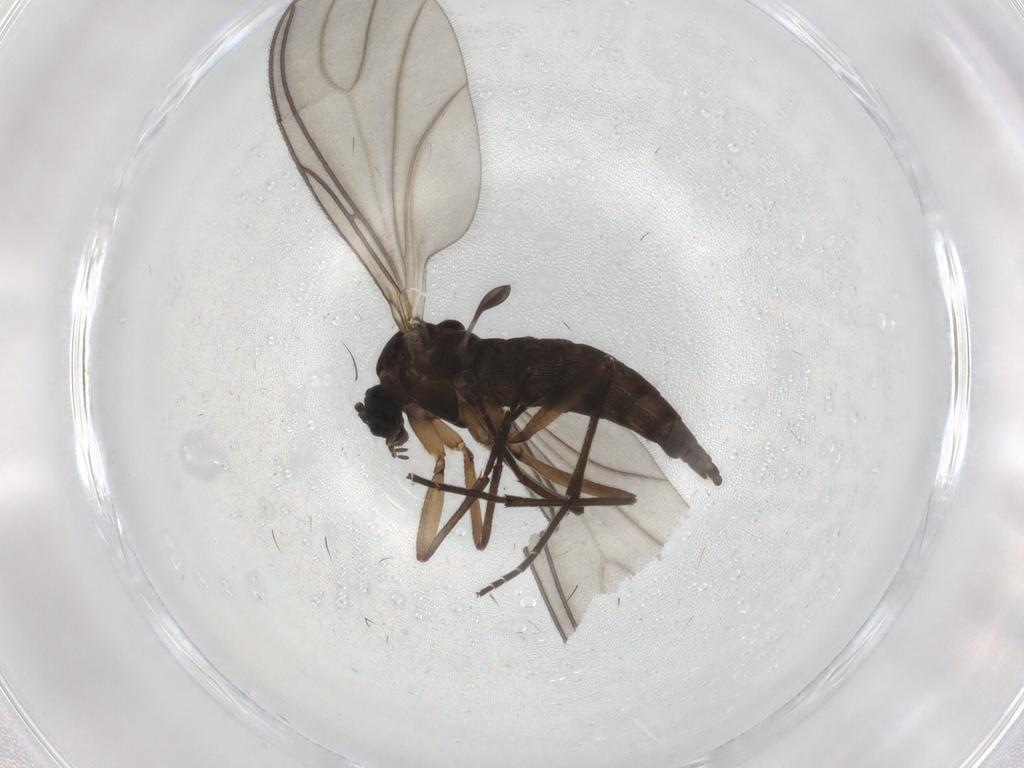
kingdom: Animalia
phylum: Arthropoda
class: Insecta
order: Diptera
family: Sciaridae
